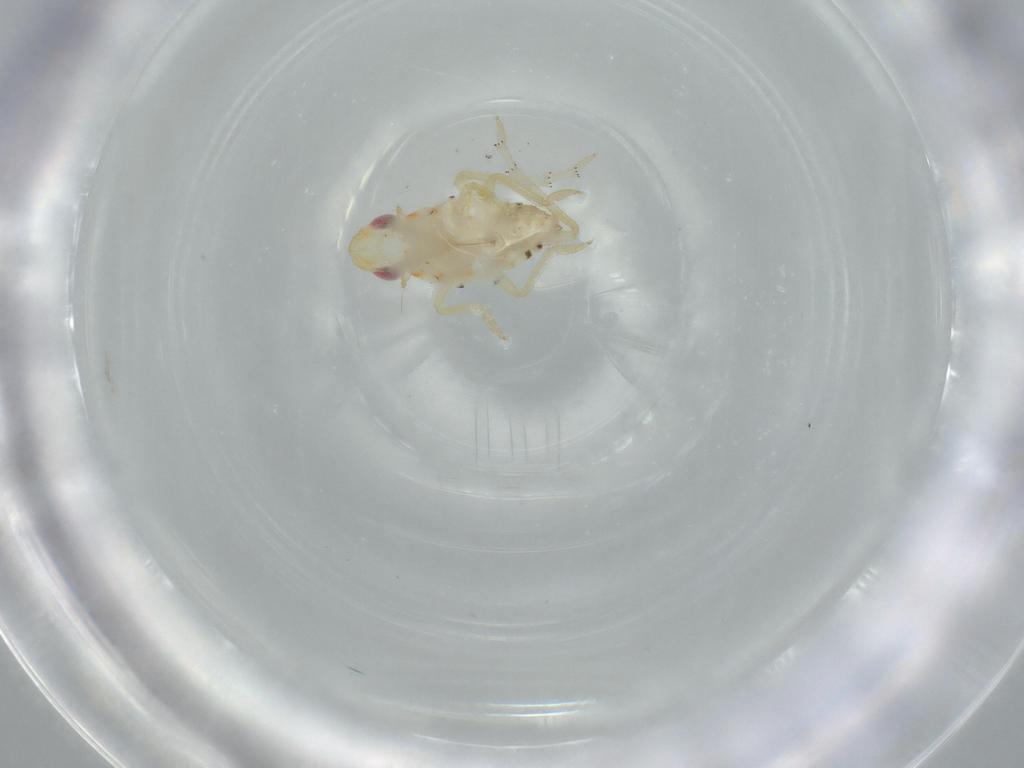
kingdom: Animalia
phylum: Arthropoda
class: Insecta
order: Hemiptera
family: Tropiduchidae
